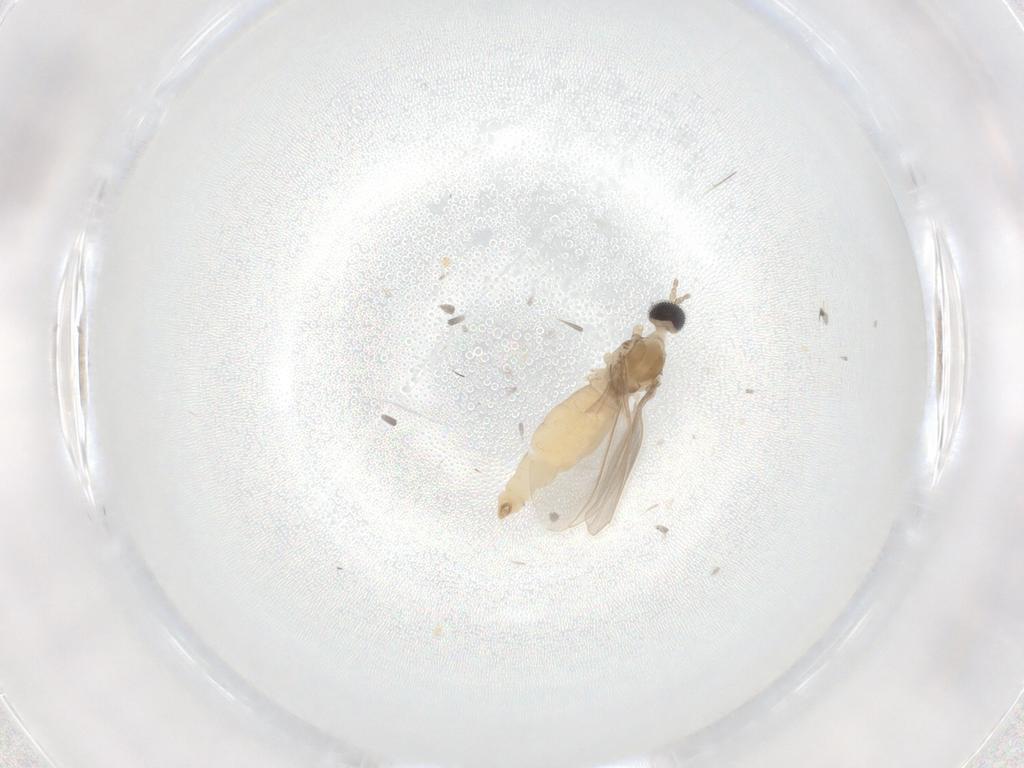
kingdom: Animalia
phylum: Arthropoda
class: Insecta
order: Diptera
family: Cecidomyiidae
